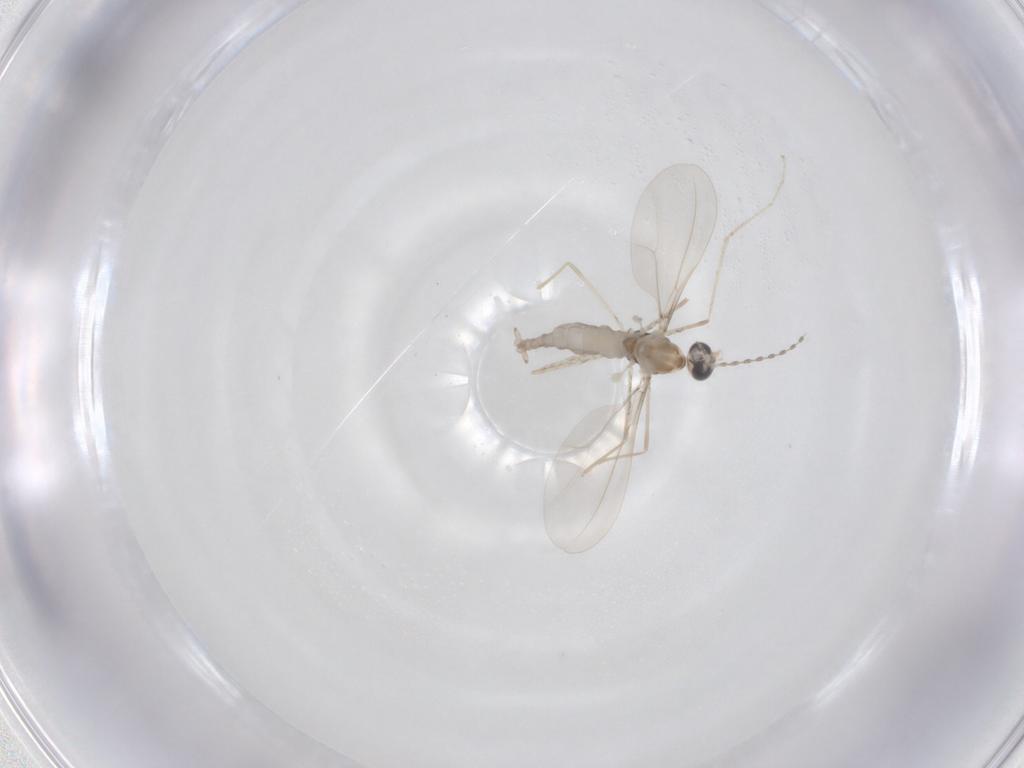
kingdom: Animalia
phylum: Arthropoda
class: Insecta
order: Diptera
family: Cecidomyiidae
